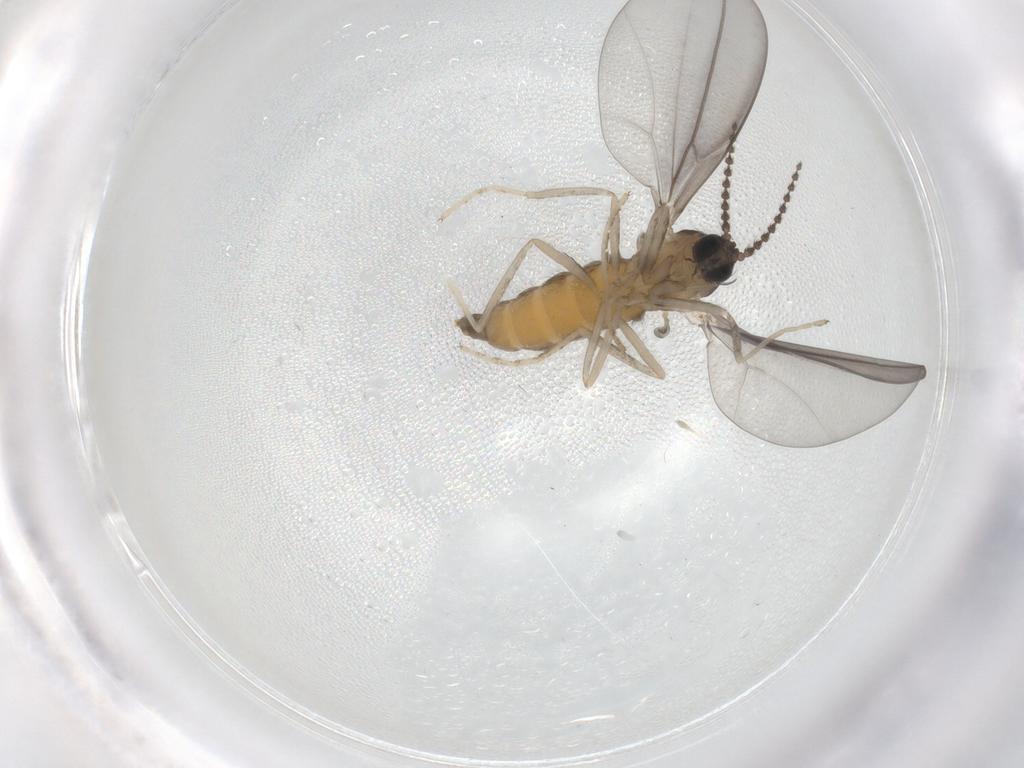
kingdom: Animalia
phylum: Arthropoda
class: Insecta
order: Diptera
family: Cecidomyiidae
